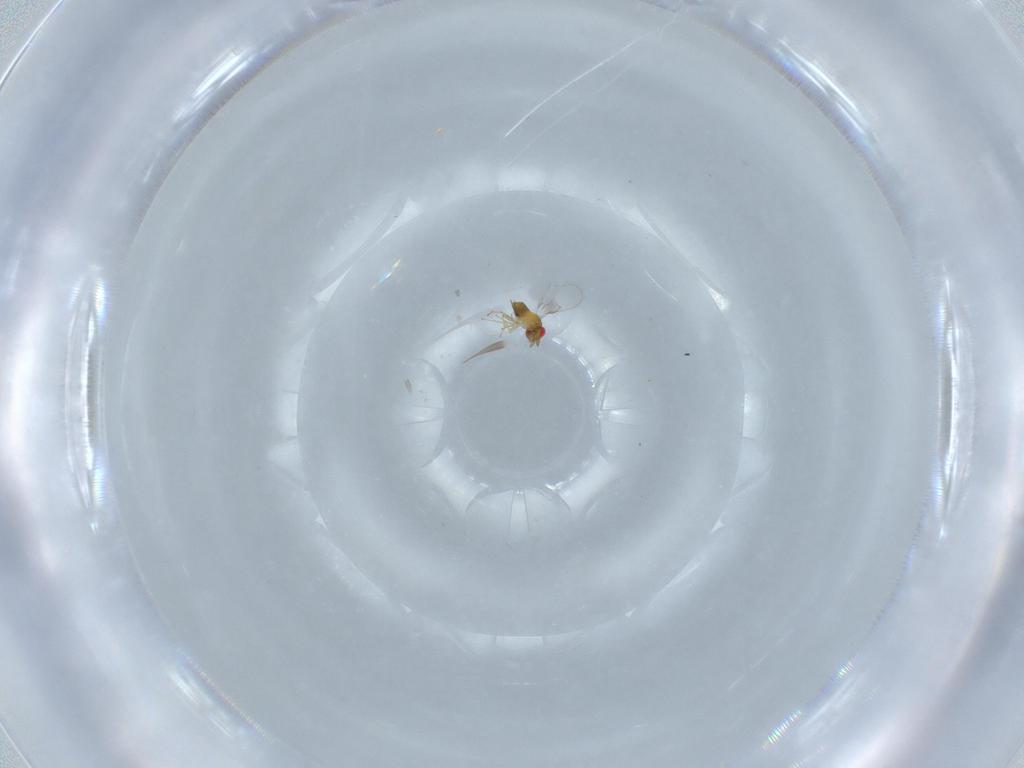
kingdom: Animalia
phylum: Arthropoda
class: Insecta
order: Hymenoptera
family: Trichogrammatidae
